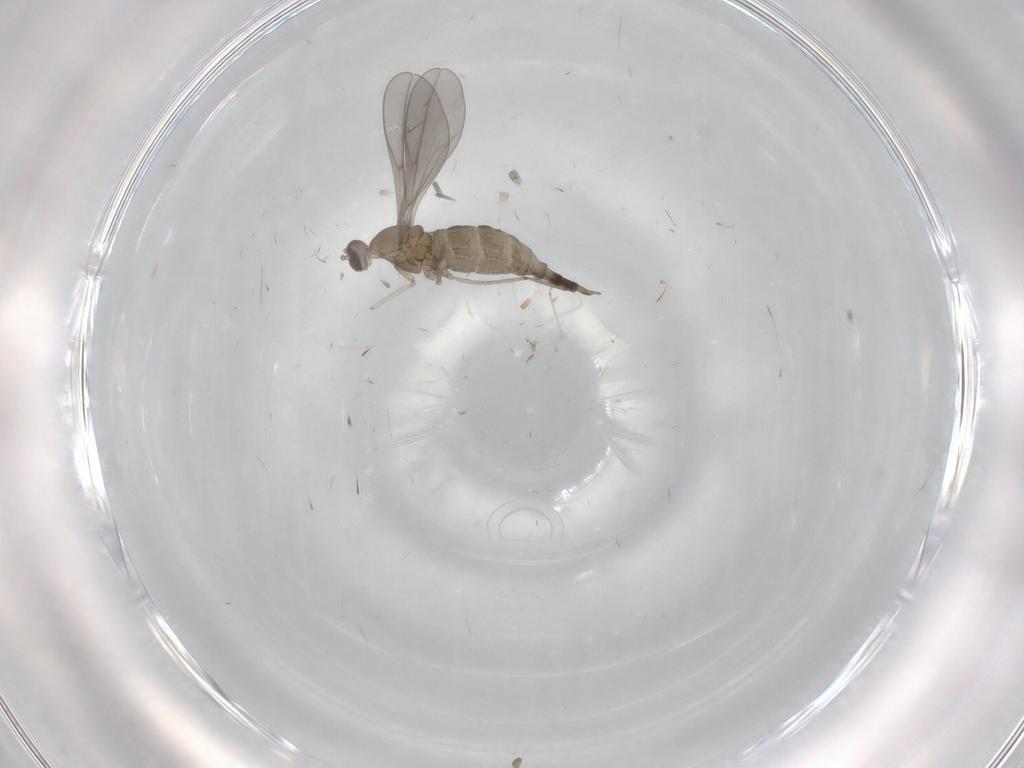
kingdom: Animalia
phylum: Arthropoda
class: Insecta
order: Diptera
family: Cecidomyiidae
